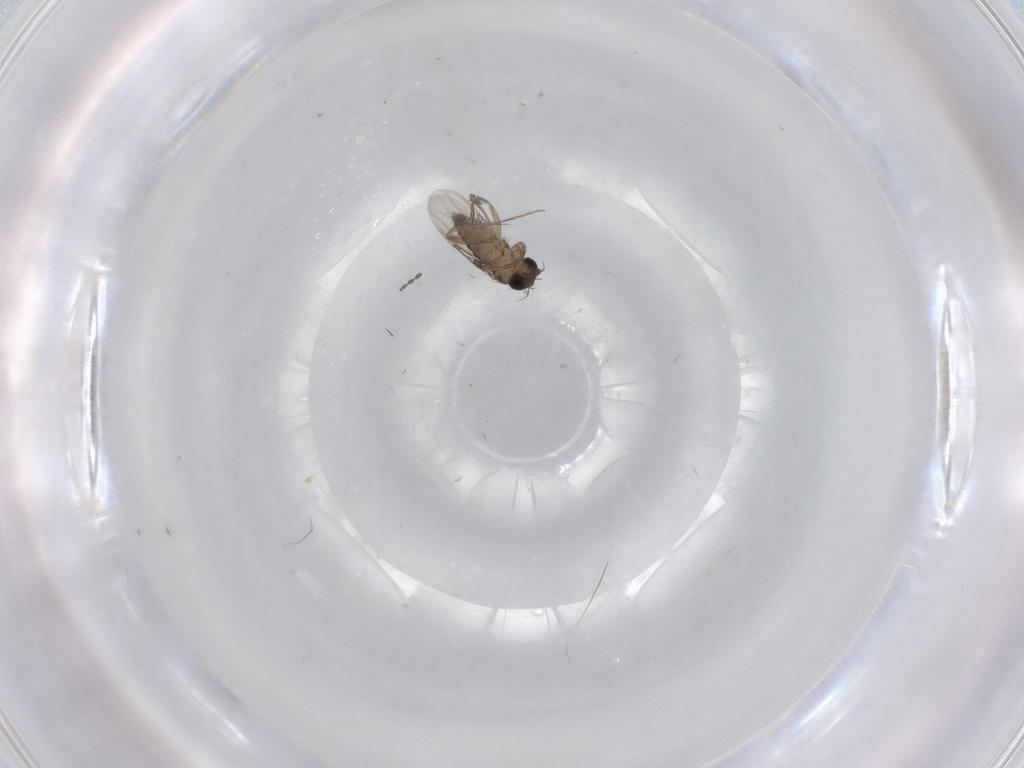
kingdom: Animalia
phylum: Arthropoda
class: Insecta
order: Diptera
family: Phoridae
